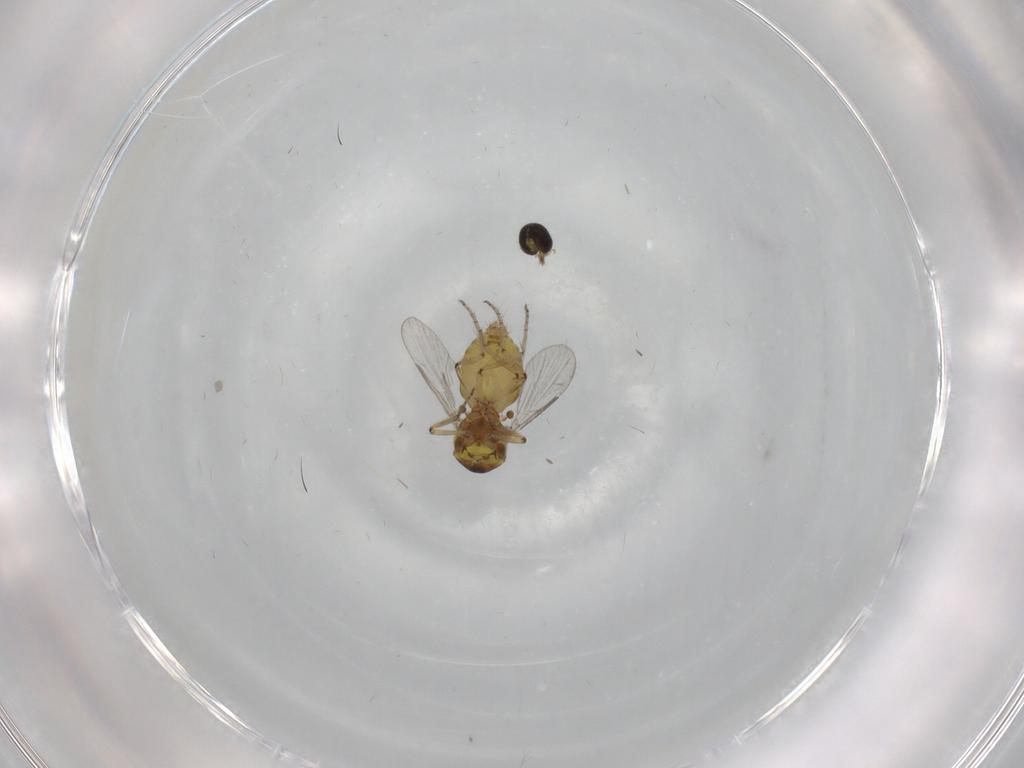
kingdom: Animalia
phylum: Arthropoda
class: Insecta
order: Diptera
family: Ceratopogonidae
